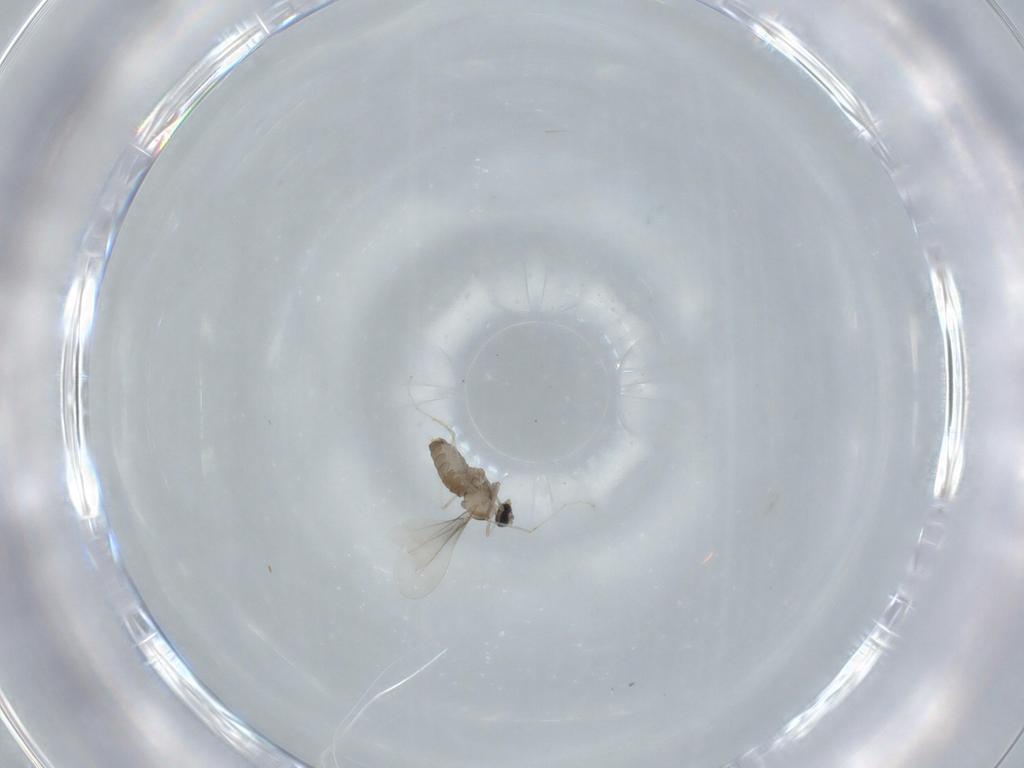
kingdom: Animalia
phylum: Arthropoda
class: Insecta
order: Diptera
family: Cecidomyiidae
